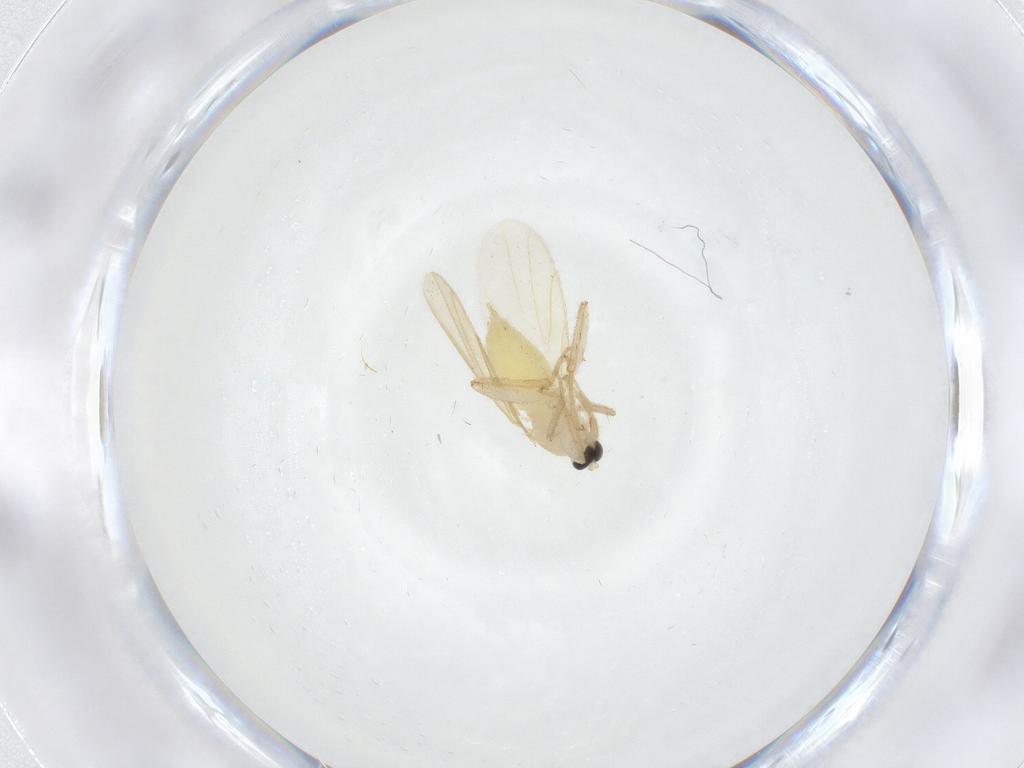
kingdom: Animalia
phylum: Arthropoda
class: Insecta
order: Diptera
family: Hybotidae
